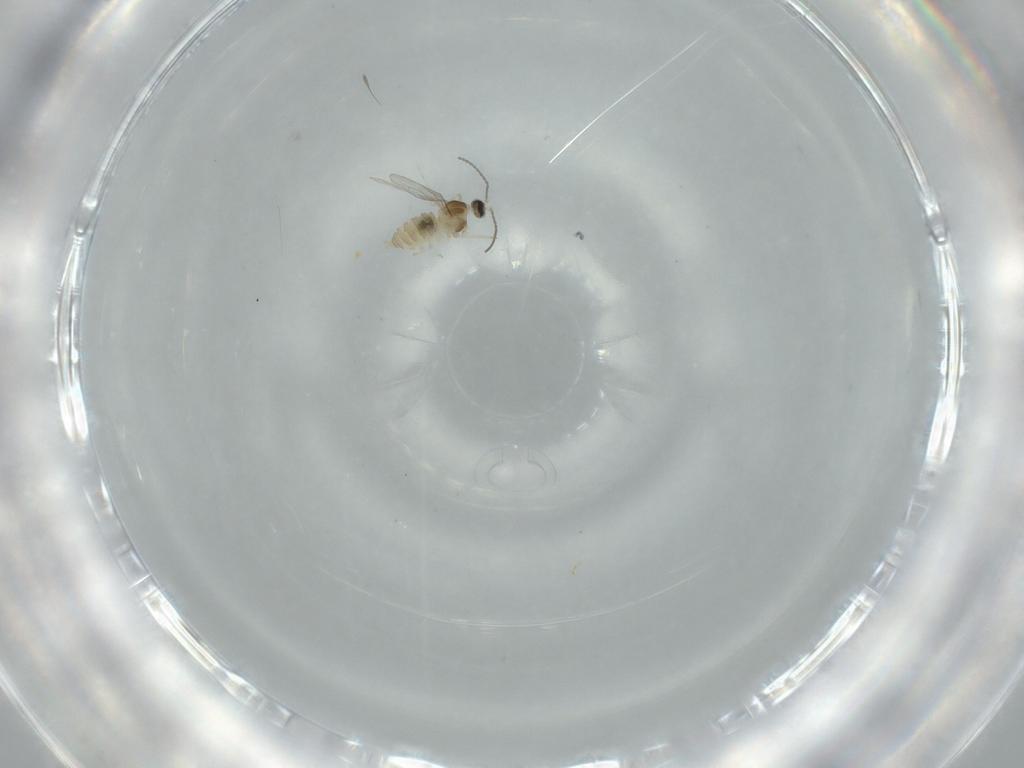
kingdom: Animalia
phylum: Arthropoda
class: Insecta
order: Diptera
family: Cecidomyiidae
